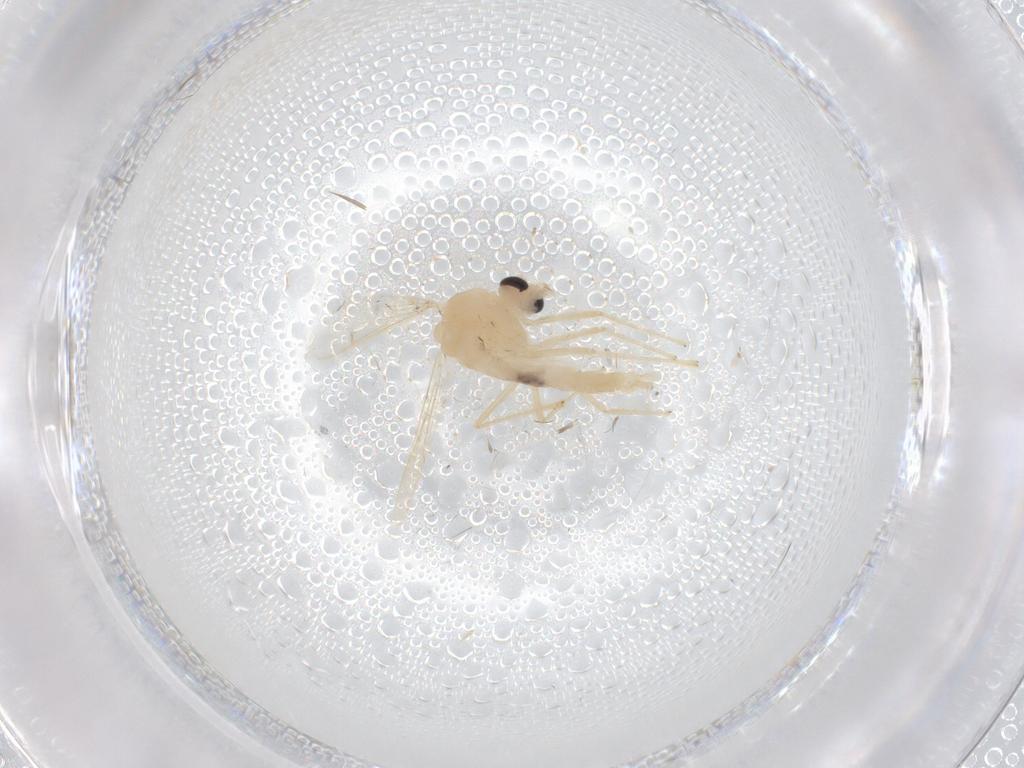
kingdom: Animalia
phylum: Arthropoda
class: Insecta
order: Diptera
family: Chironomidae
